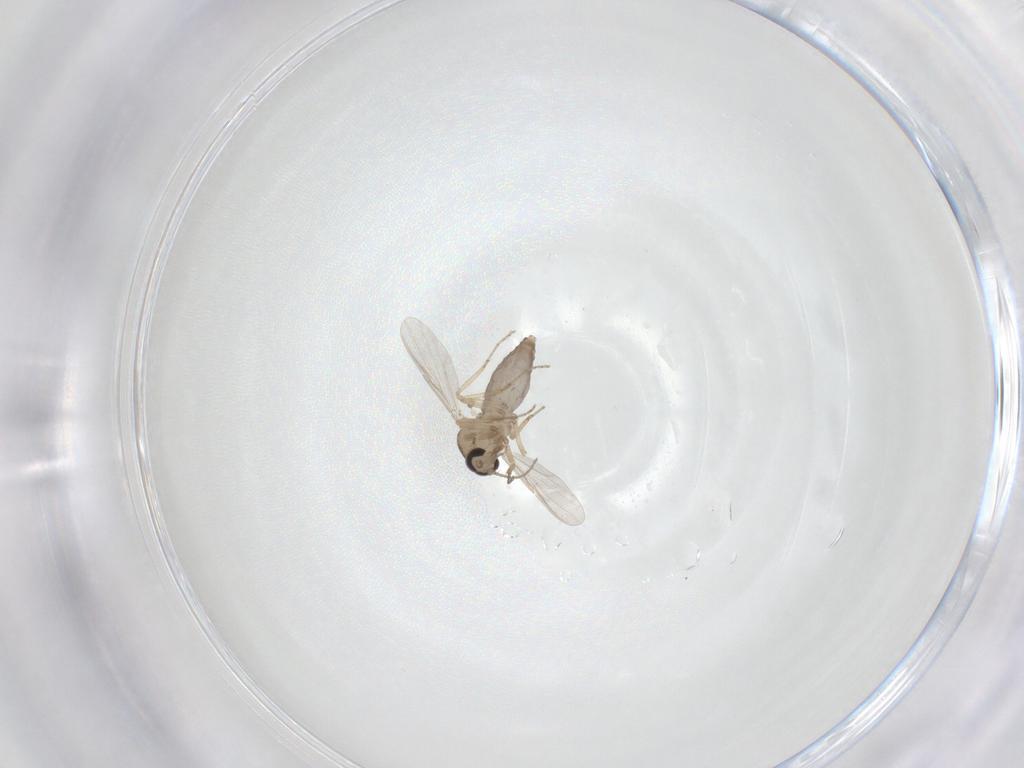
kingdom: Animalia
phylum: Arthropoda
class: Insecta
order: Diptera
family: Ceratopogonidae
